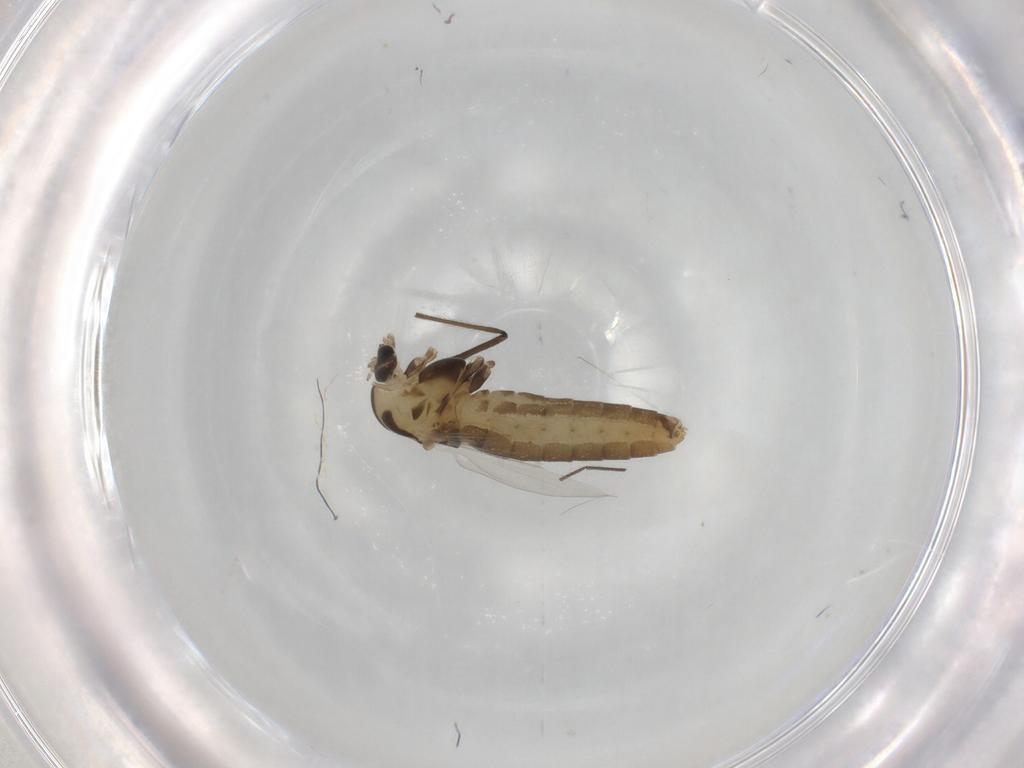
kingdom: Animalia
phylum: Arthropoda
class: Insecta
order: Diptera
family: Chironomidae
